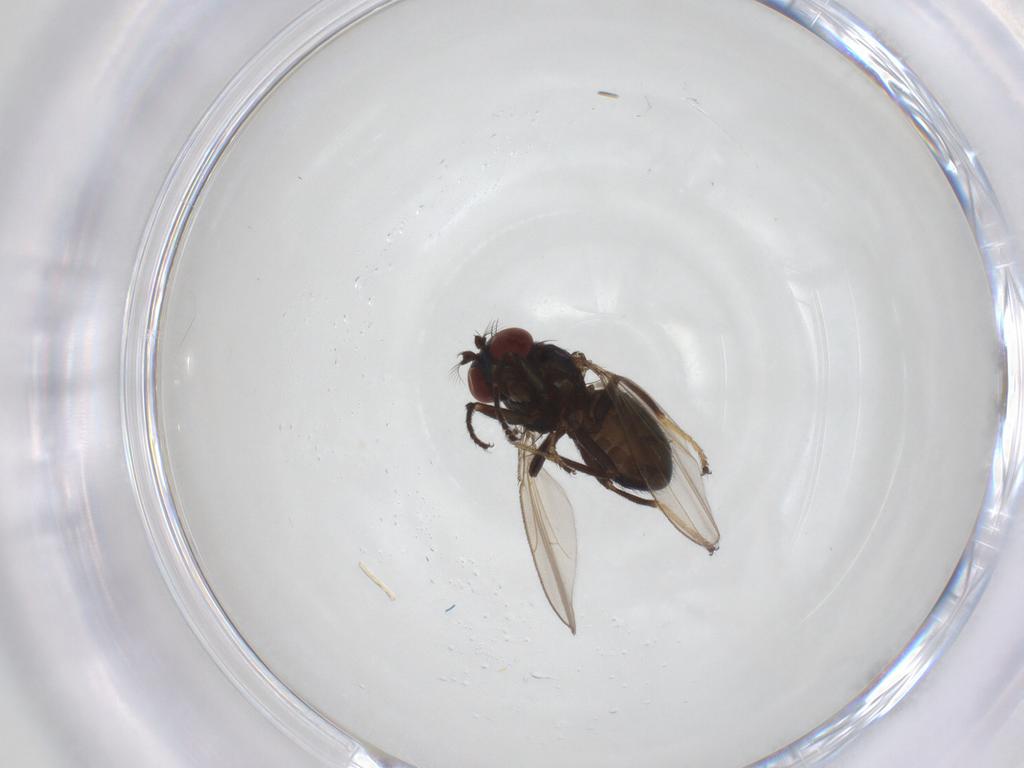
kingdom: Animalia
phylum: Arthropoda
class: Insecta
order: Diptera
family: Ephydridae
